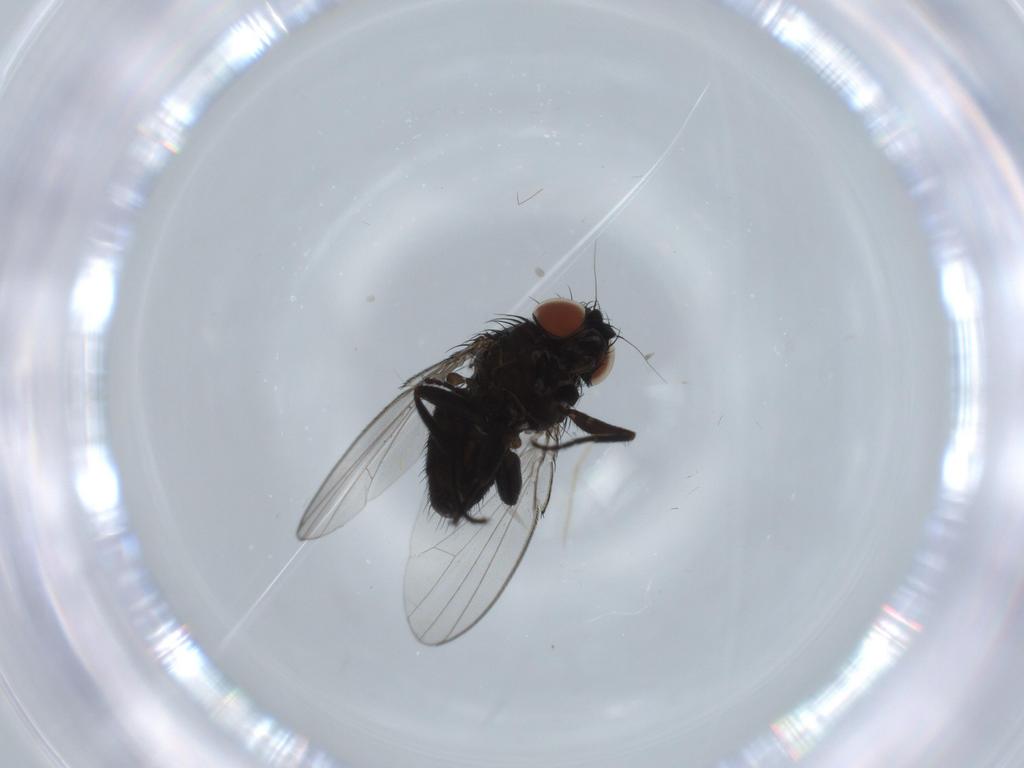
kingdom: Animalia
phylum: Arthropoda
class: Insecta
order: Diptera
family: Milichiidae
